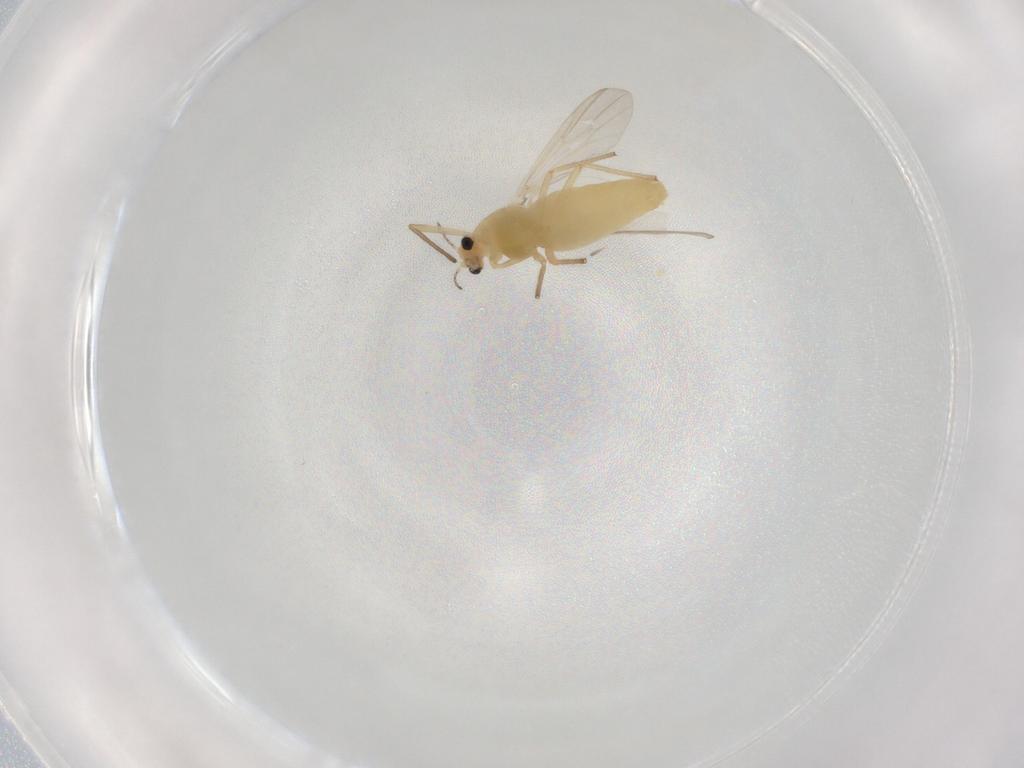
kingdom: Animalia
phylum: Arthropoda
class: Insecta
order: Diptera
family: Chironomidae
